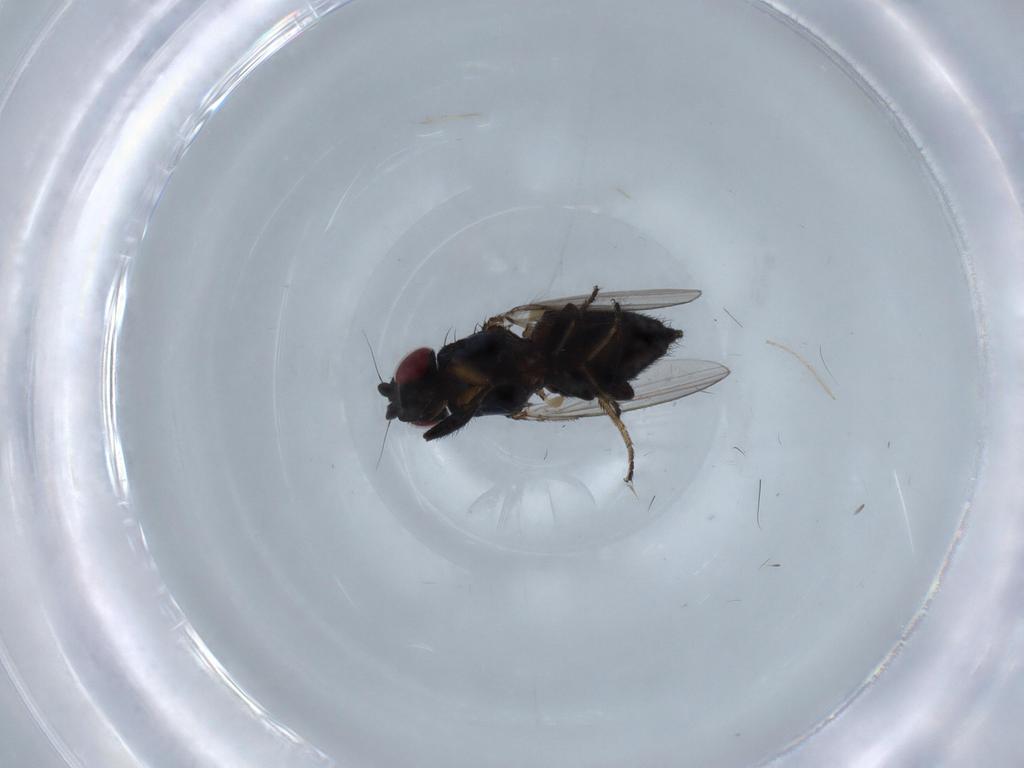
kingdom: Animalia
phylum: Arthropoda
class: Insecta
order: Diptera
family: Milichiidae
